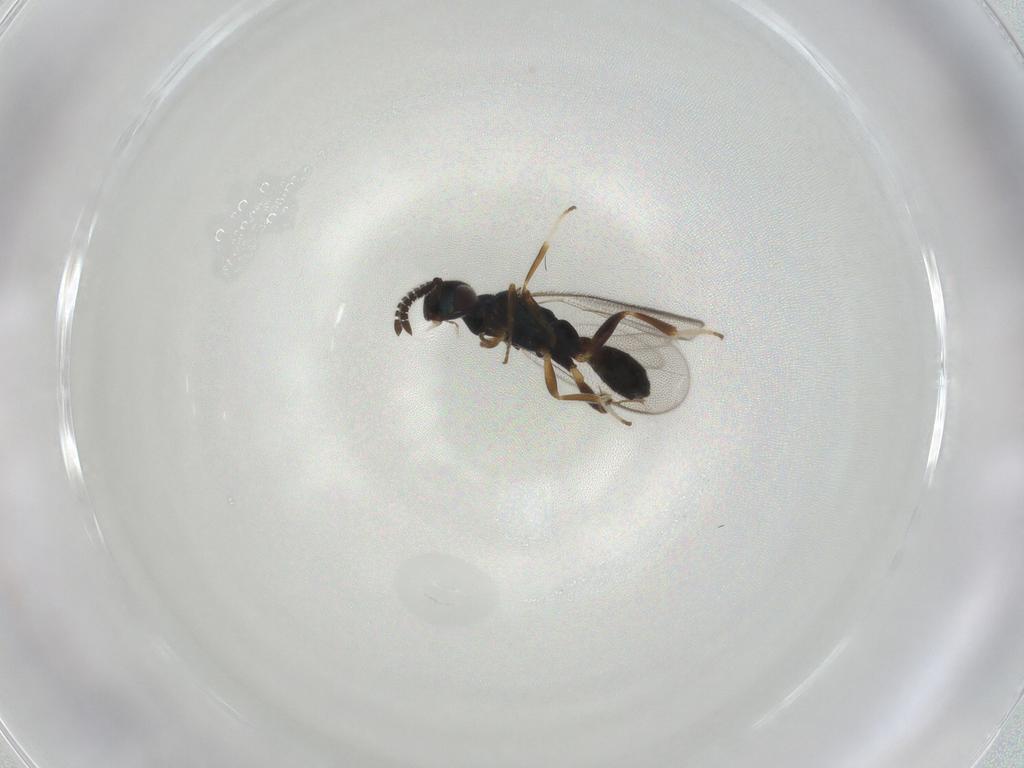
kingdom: Animalia
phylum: Arthropoda
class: Insecta
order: Hymenoptera
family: Cleonyminae
